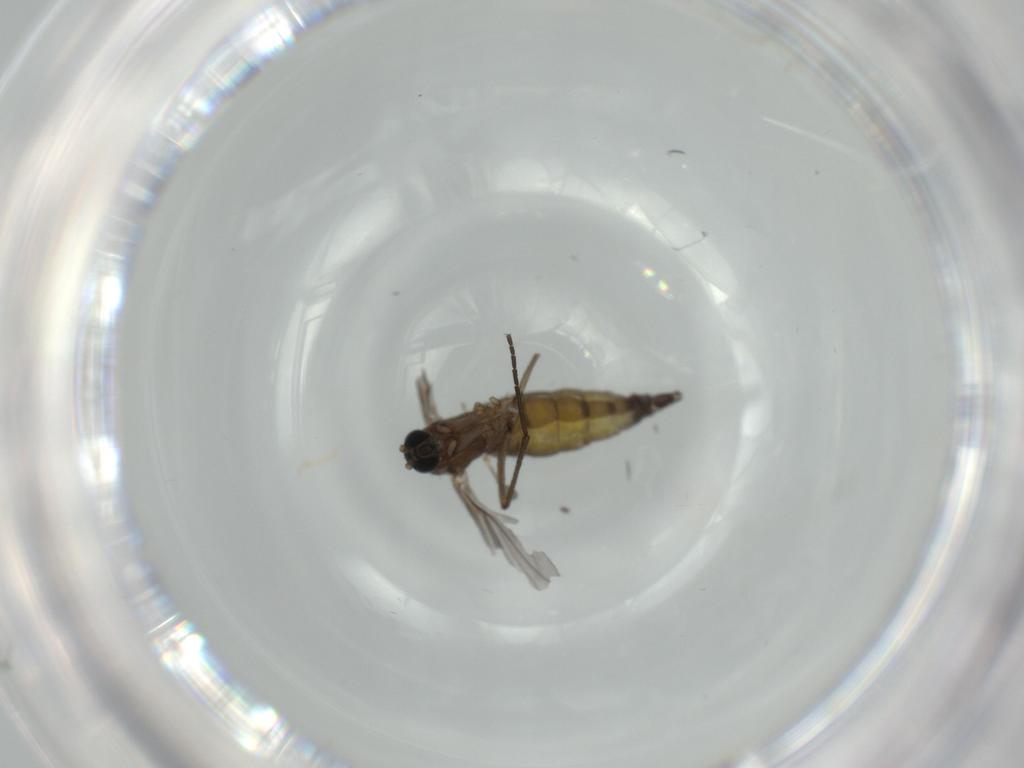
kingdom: Animalia
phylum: Arthropoda
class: Insecta
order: Diptera
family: Sciaridae
